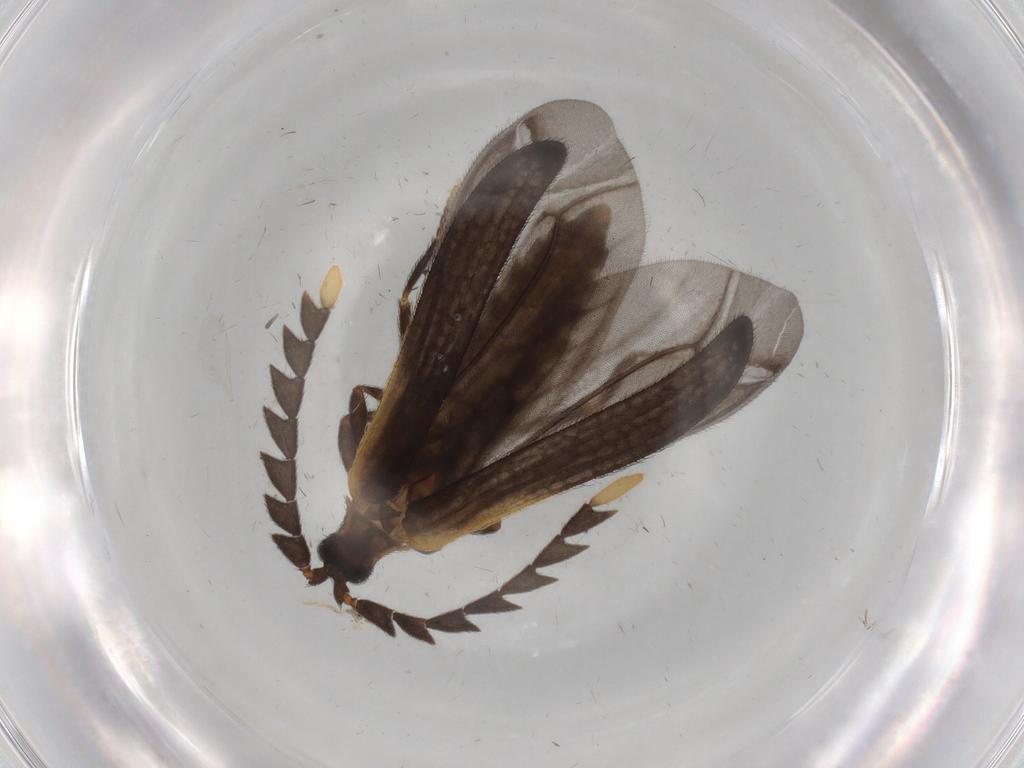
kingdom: Animalia
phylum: Arthropoda
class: Insecta
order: Coleoptera
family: Lycidae
